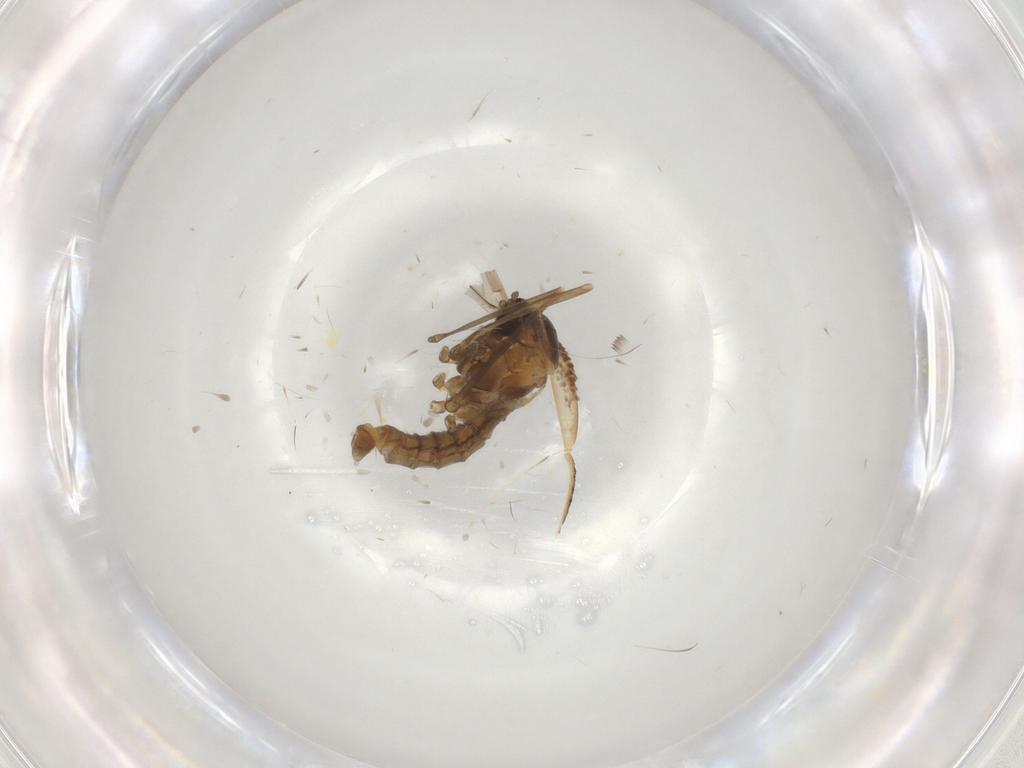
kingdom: Animalia
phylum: Arthropoda
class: Insecta
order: Diptera
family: Cecidomyiidae
